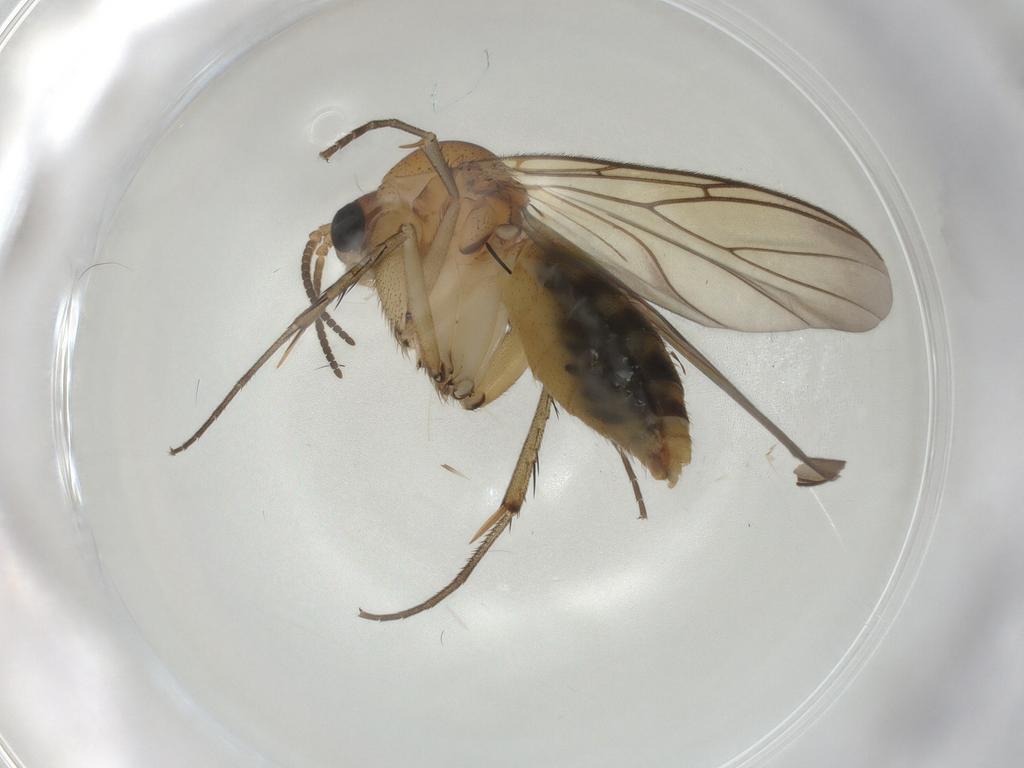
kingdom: Animalia
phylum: Arthropoda
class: Insecta
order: Diptera
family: Mycetophilidae
